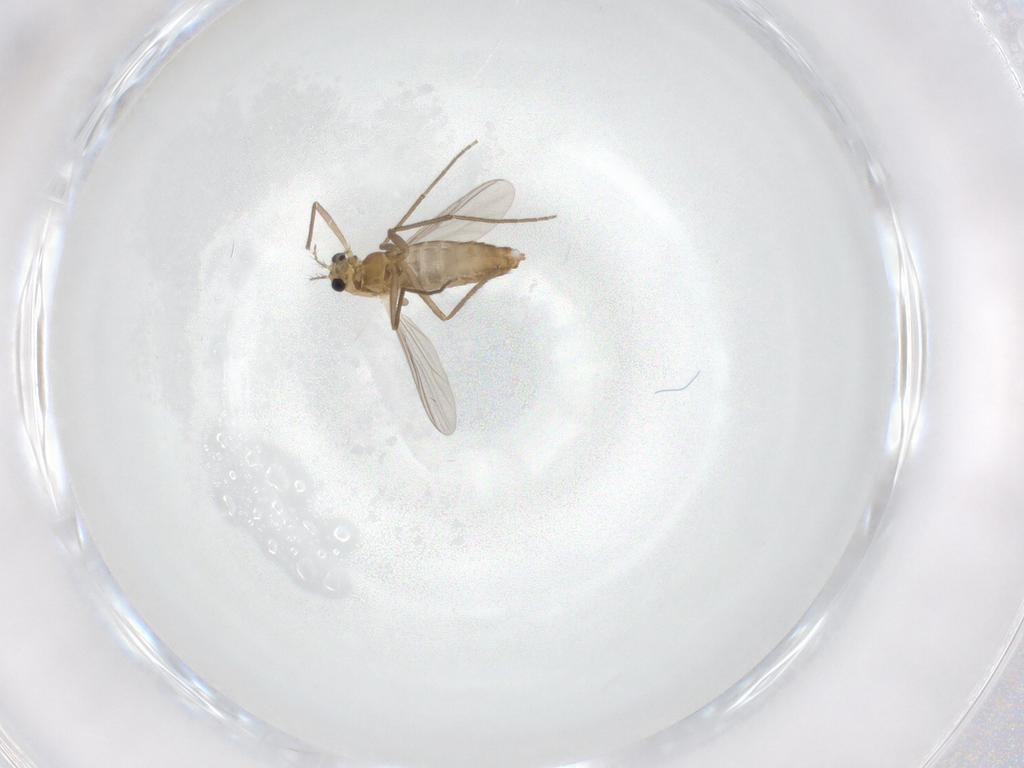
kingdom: Animalia
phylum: Arthropoda
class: Insecta
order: Diptera
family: Chironomidae
